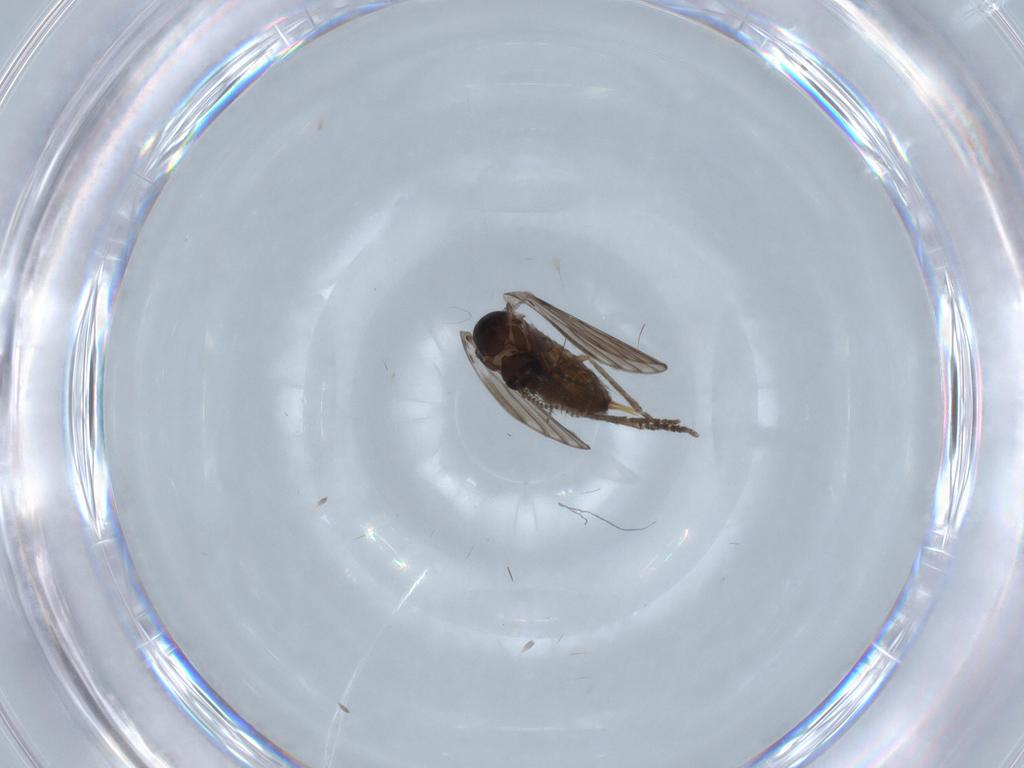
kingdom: Animalia
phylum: Arthropoda
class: Insecta
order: Diptera
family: Psychodidae
